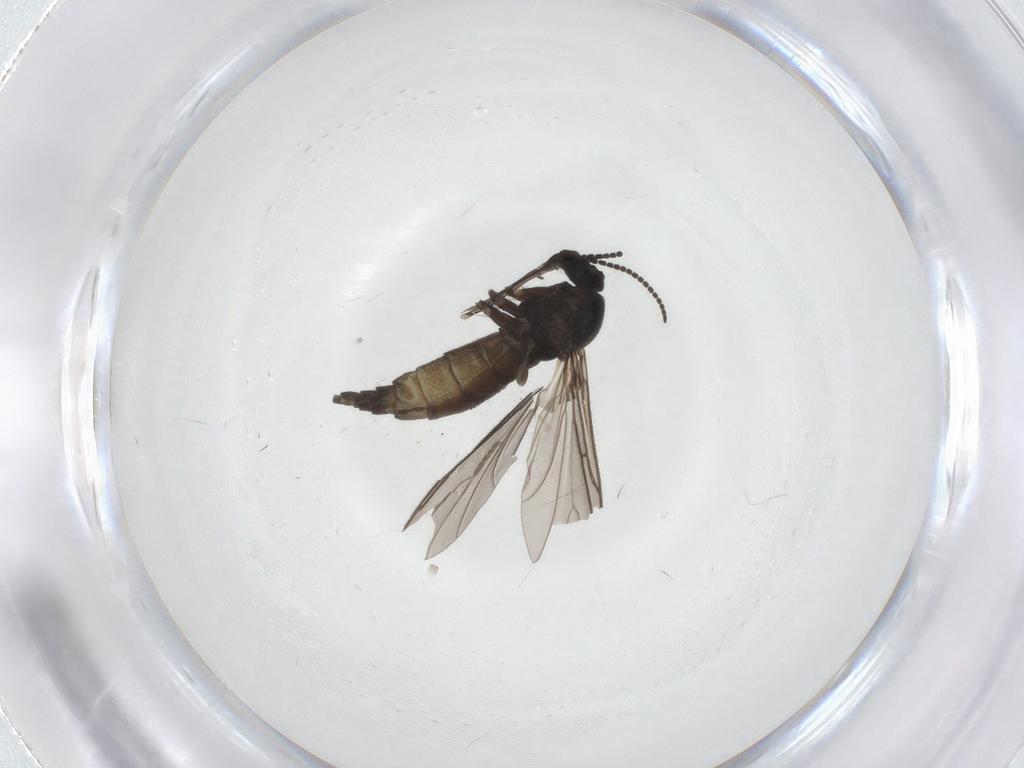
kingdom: Animalia
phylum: Arthropoda
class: Insecta
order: Diptera
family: Sciaridae
